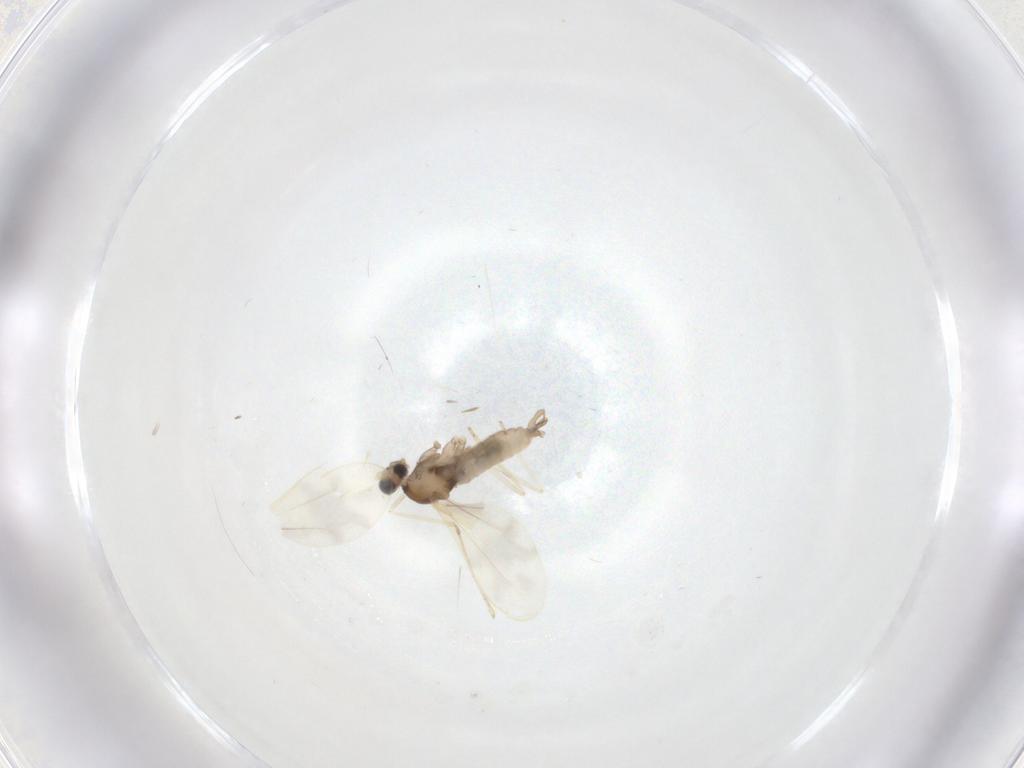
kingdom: Animalia
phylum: Arthropoda
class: Insecta
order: Diptera
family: Cecidomyiidae
